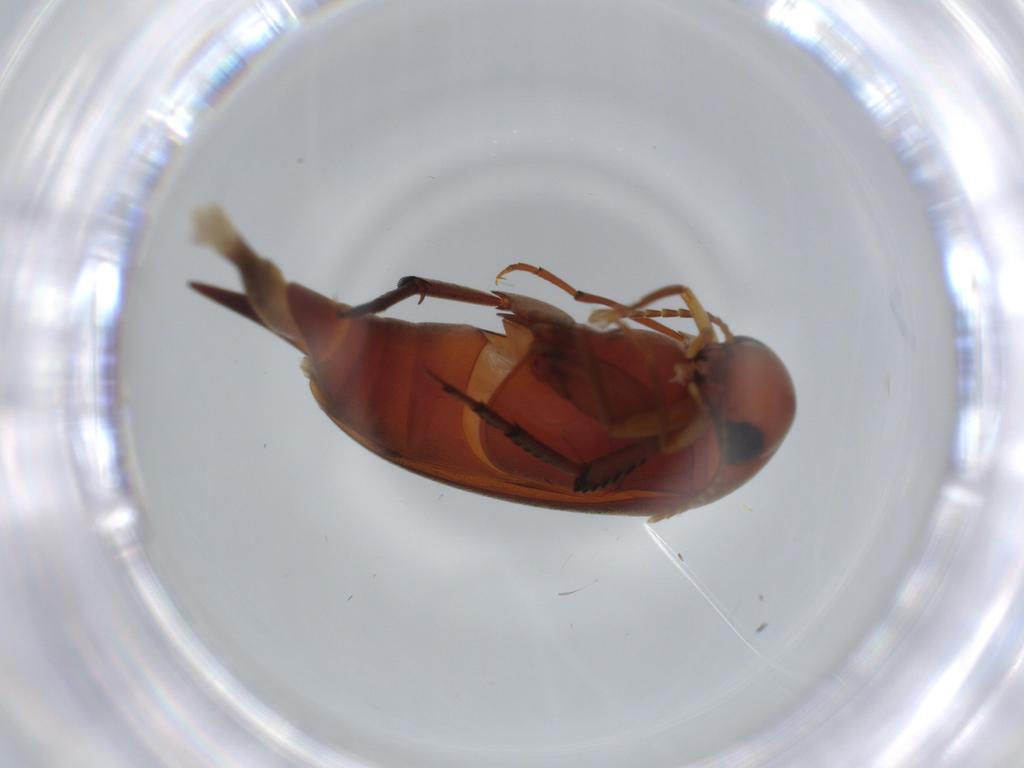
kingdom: Animalia
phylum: Arthropoda
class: Insecta
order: Coleoptera
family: Mordellidae
